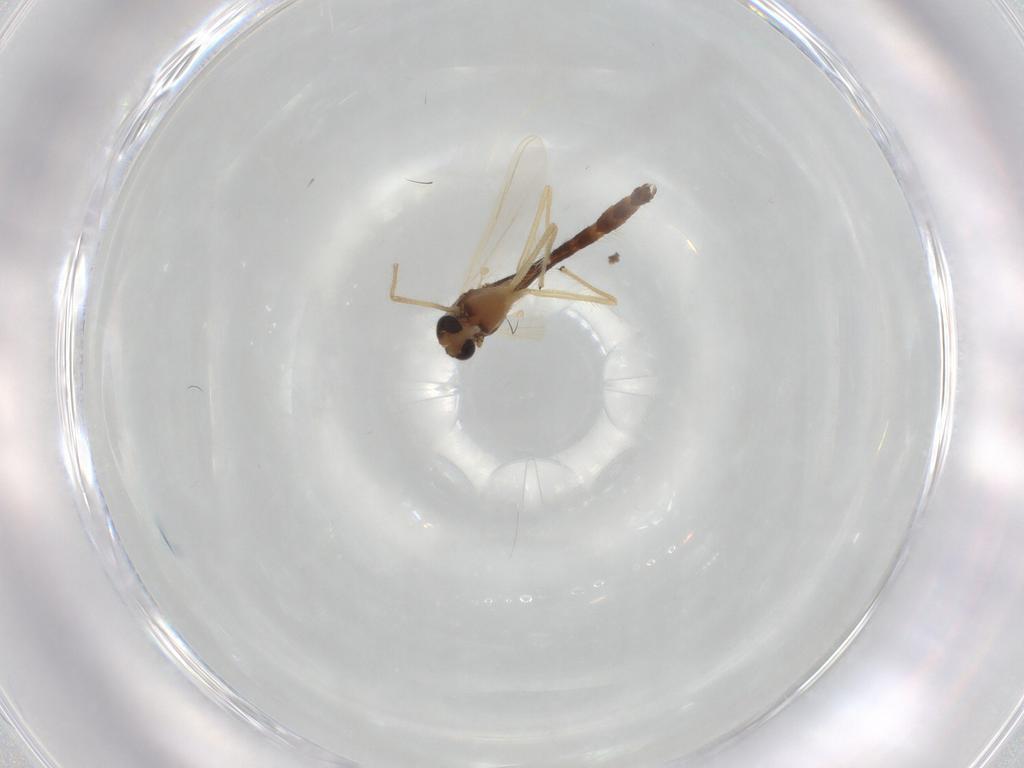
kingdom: Animalia
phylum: Arthropoda
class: Insecta
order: Diptera
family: Chironomidae
